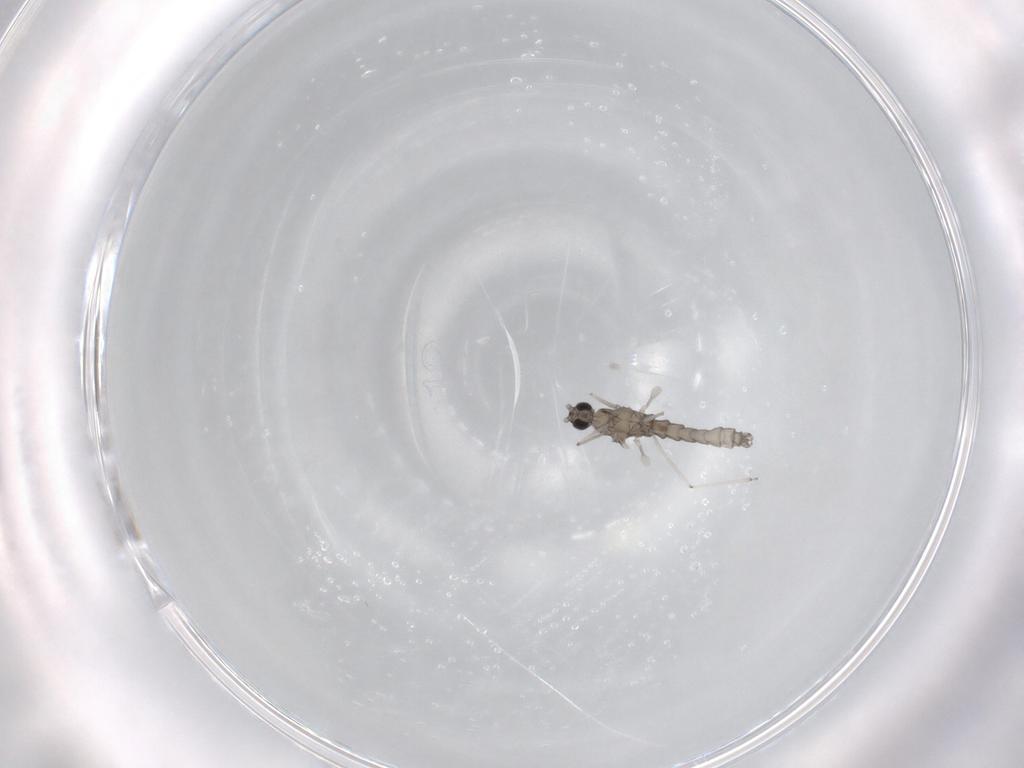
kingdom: Animalia
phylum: Arthropoda
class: Insecta
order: Diptera
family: Cecidomyiidae
